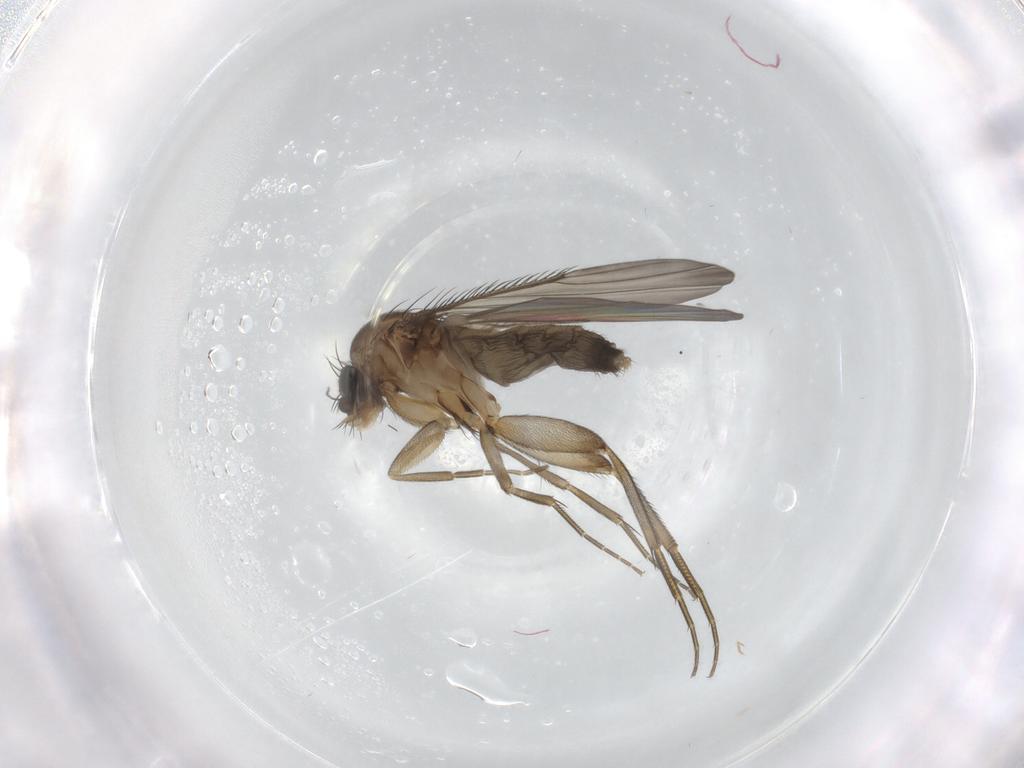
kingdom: Animalia
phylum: Arthropoda
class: Insecta
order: Diptera
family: Phoridae
